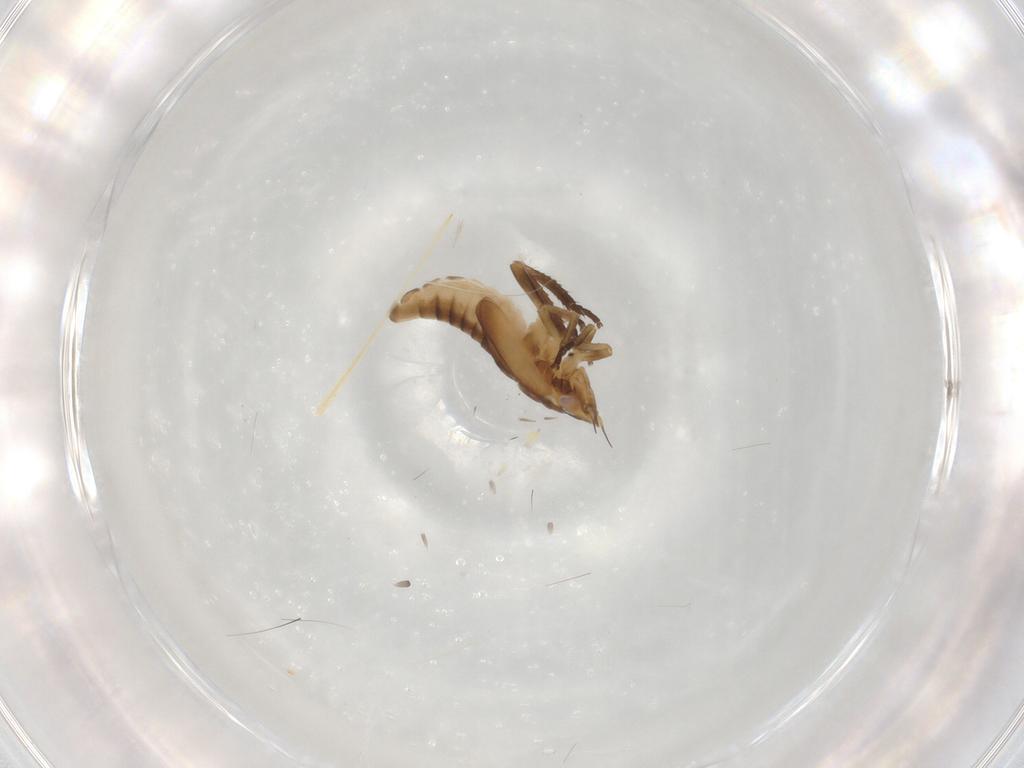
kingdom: Animalia
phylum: Arthropoda
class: Insecta
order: Hemiptera
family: Cicadellidae
